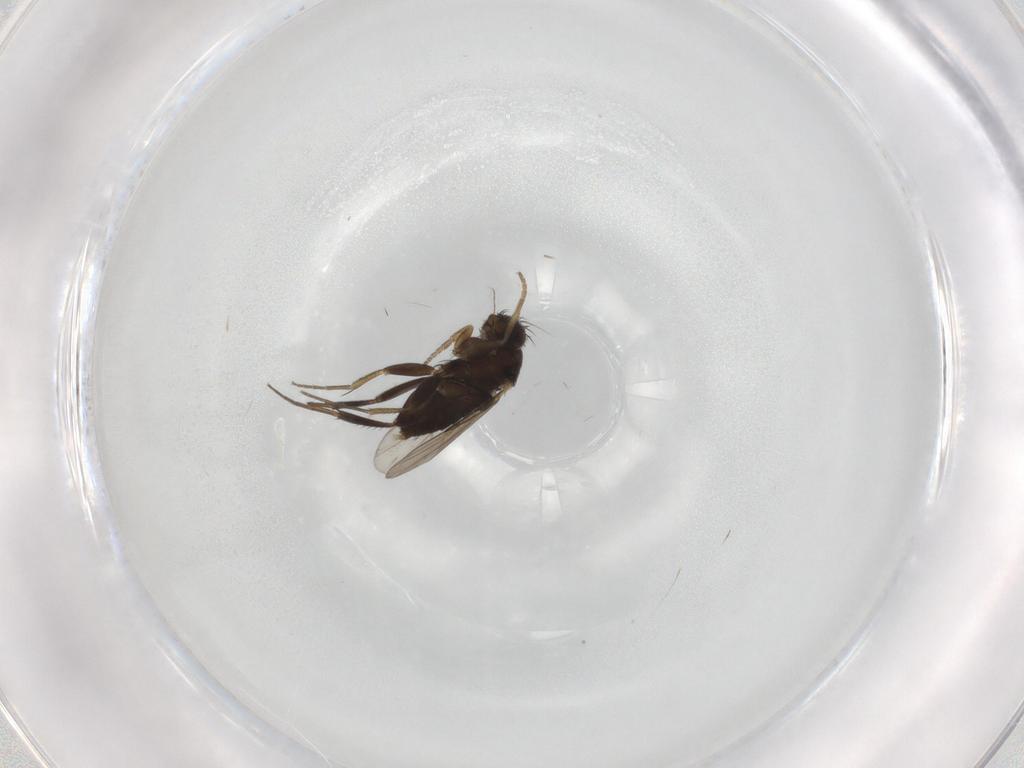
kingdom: Animalia
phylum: Arthropoda
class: Insecta
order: Diptera
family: Phoridae
